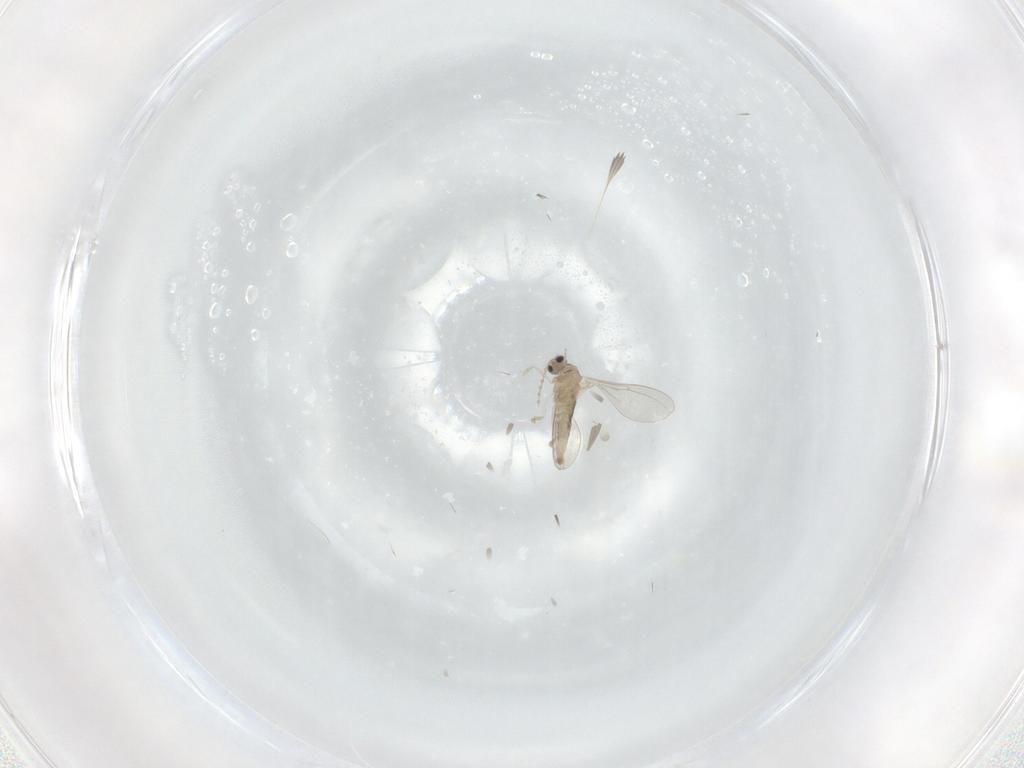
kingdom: Animalia
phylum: Arthropoda
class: Insecta
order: Diptera
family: Cecidomyiidae
